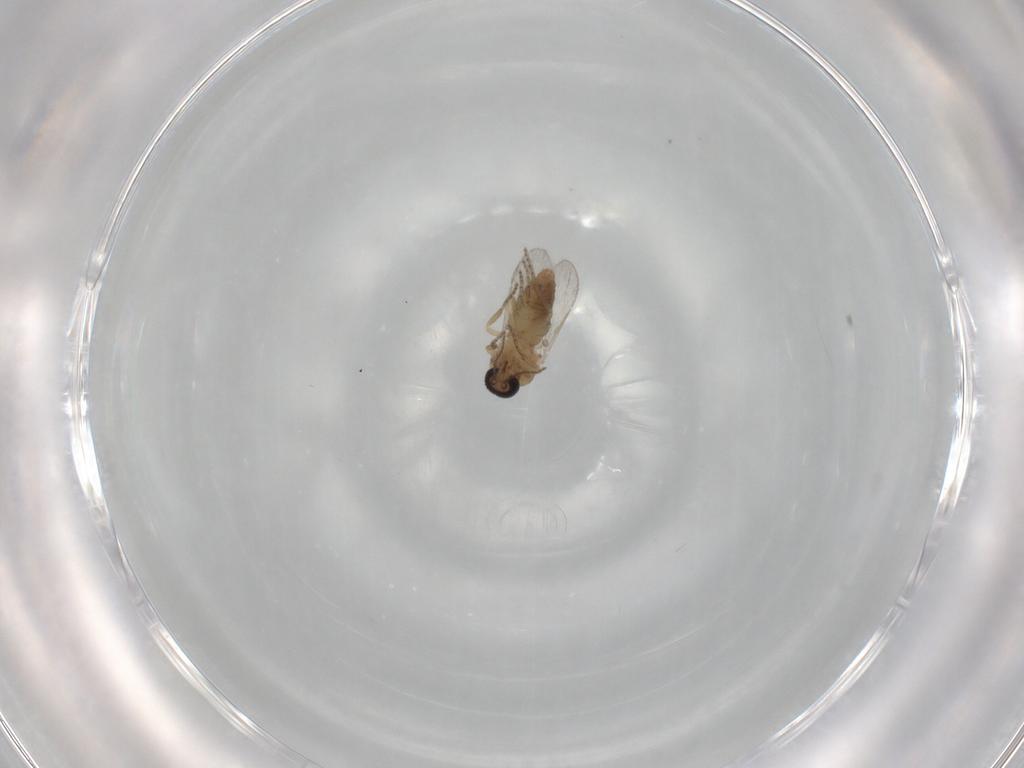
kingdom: Animalia
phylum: Arthropoda
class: Insecta
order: Diptera
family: Ceratopogonidae
